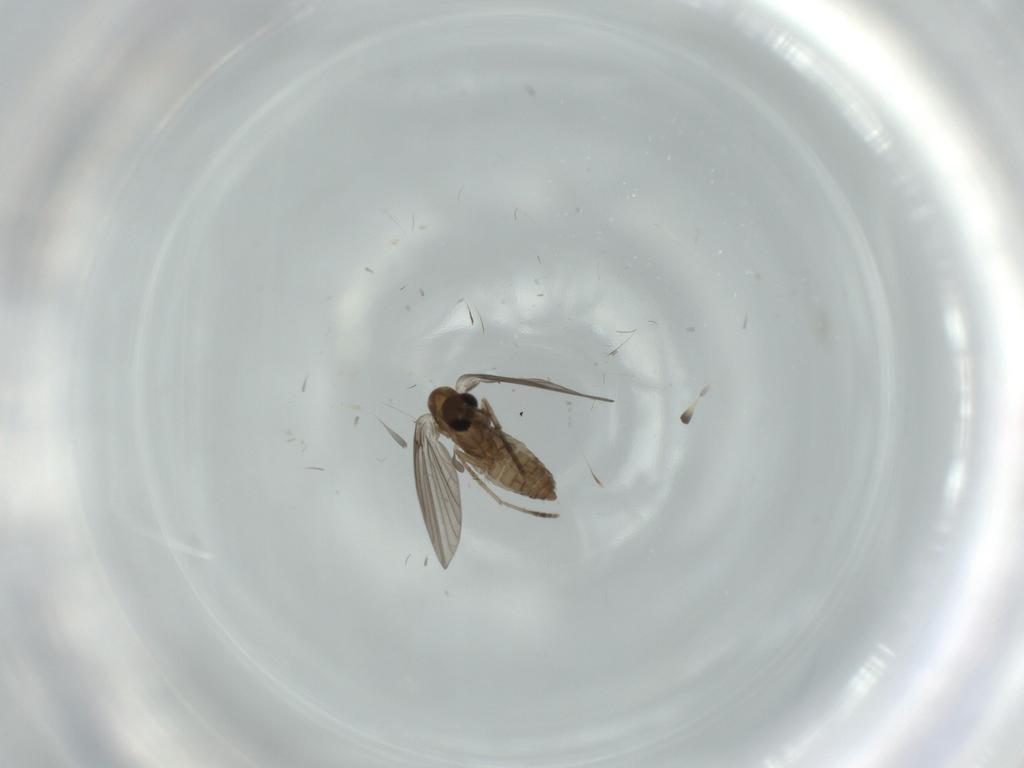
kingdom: Animalia
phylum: Arthropoda
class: Insecta
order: Diptera
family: Psychodidae
